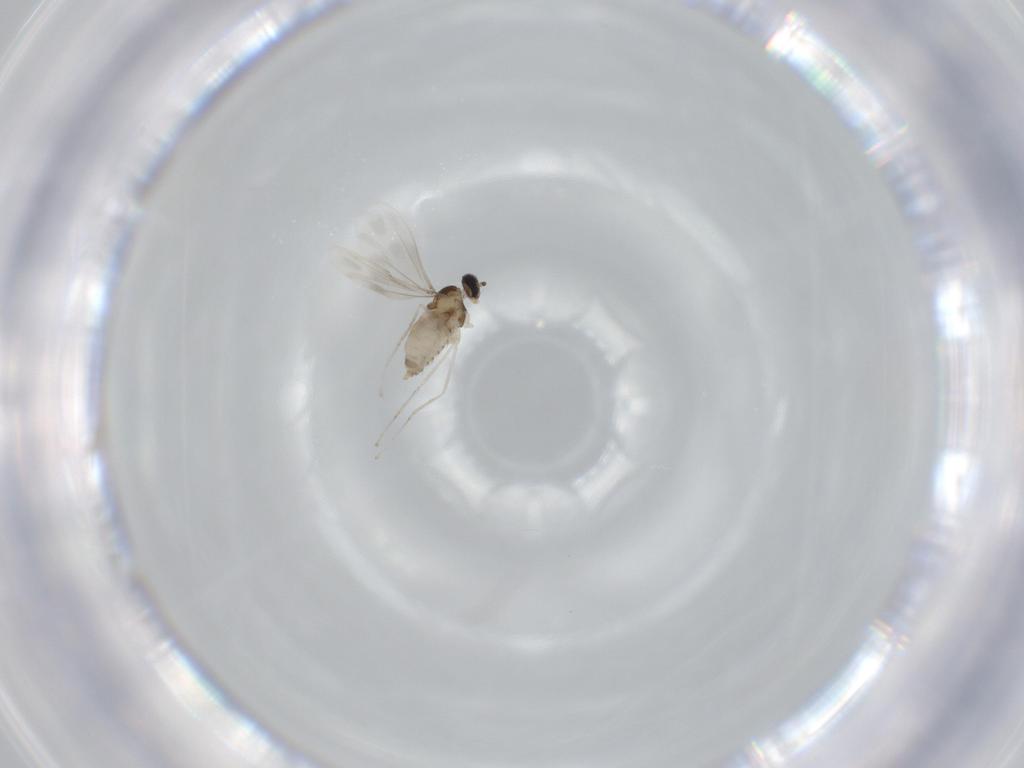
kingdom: Animalia
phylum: Arthropoda
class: Insecta
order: Diptera
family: Cecidomyiidae
